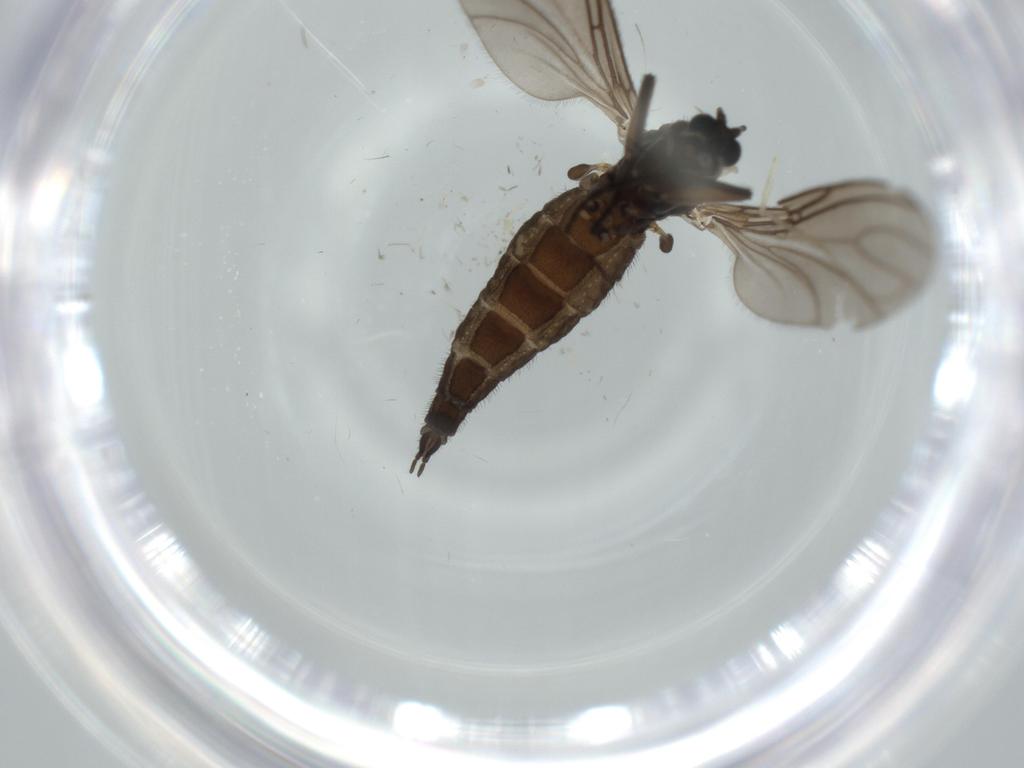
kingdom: Animalia
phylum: Arthropoda
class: Insecta
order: Diptera
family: Sciaridae
